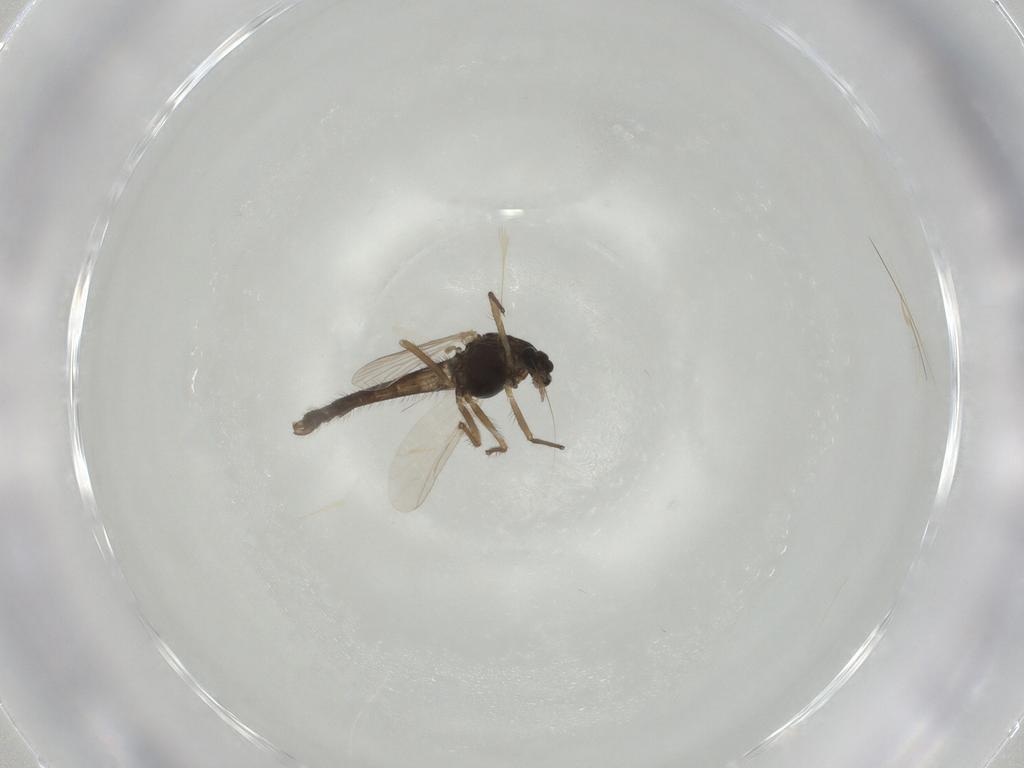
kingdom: Animalia
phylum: Arthropoda
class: Insecta
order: Diptera
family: Chironomidae
